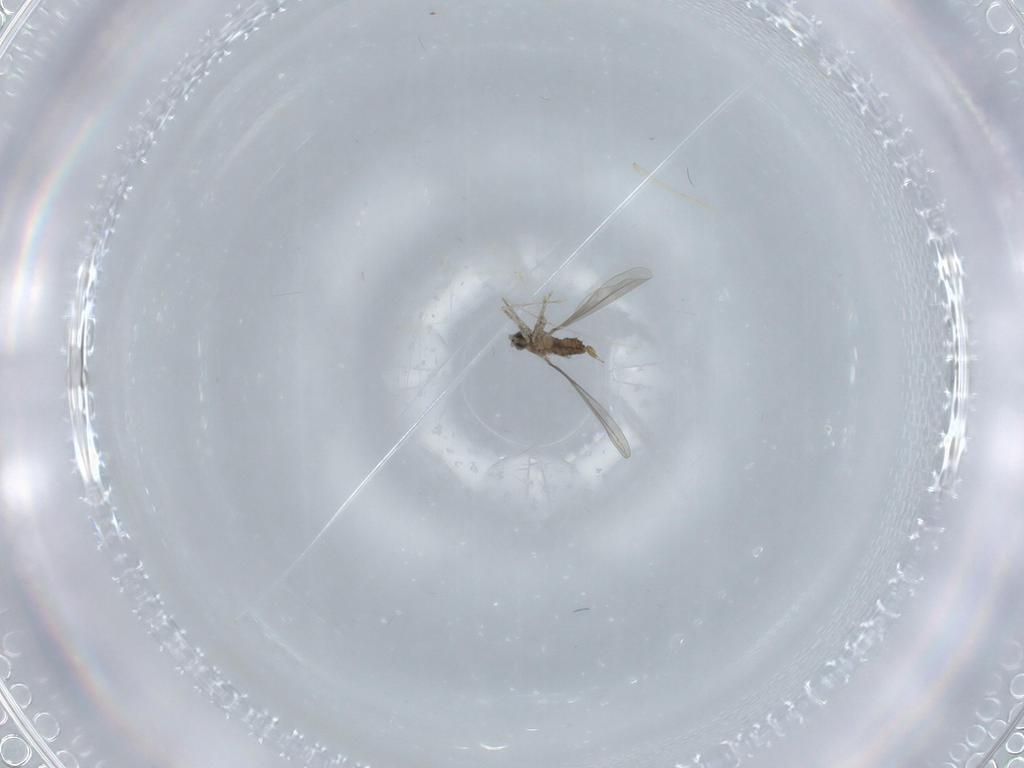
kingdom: Animalia
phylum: Arthropoda
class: Insecta
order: Diptera
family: Cecidomyiidae
